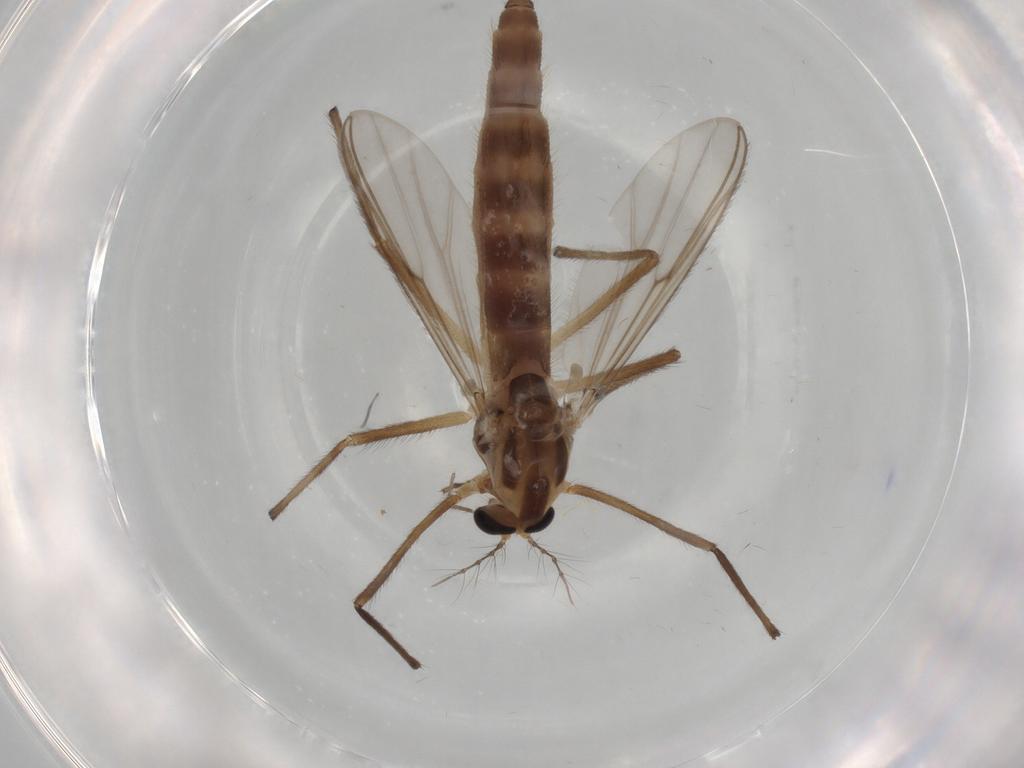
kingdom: Animalia
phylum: Arthropoda
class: Insecta
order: Diptera
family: Chironomidae
